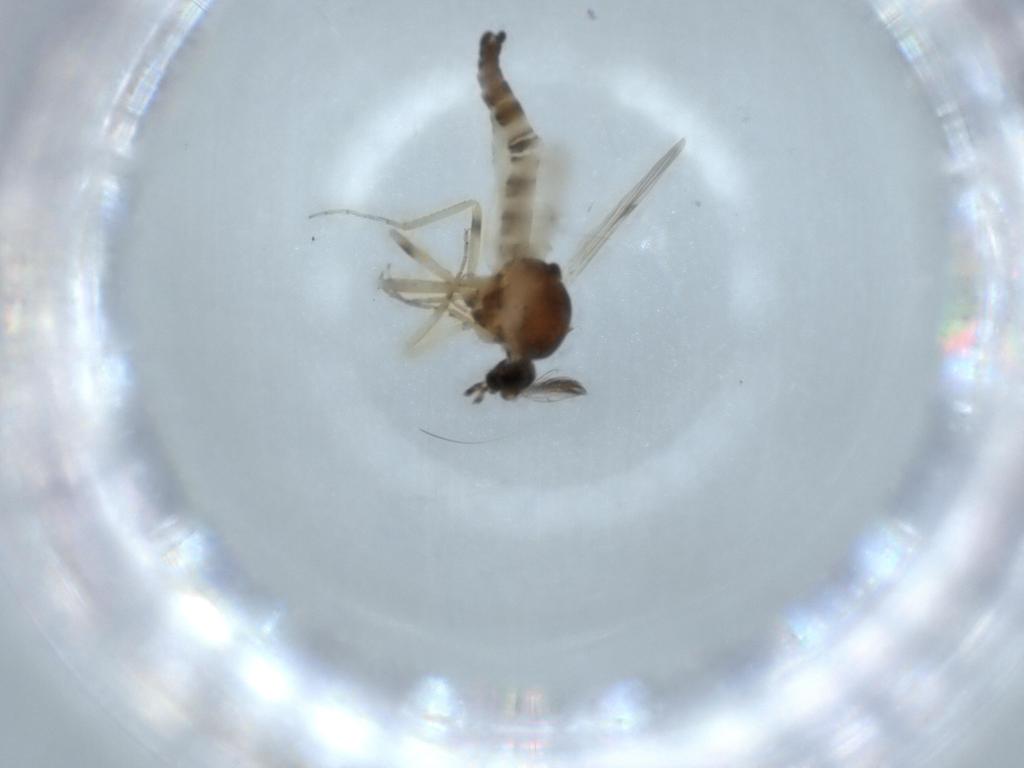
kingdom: Animalia
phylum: Arthropoda
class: Insecta
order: Diptera
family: Cecidomyiidae
